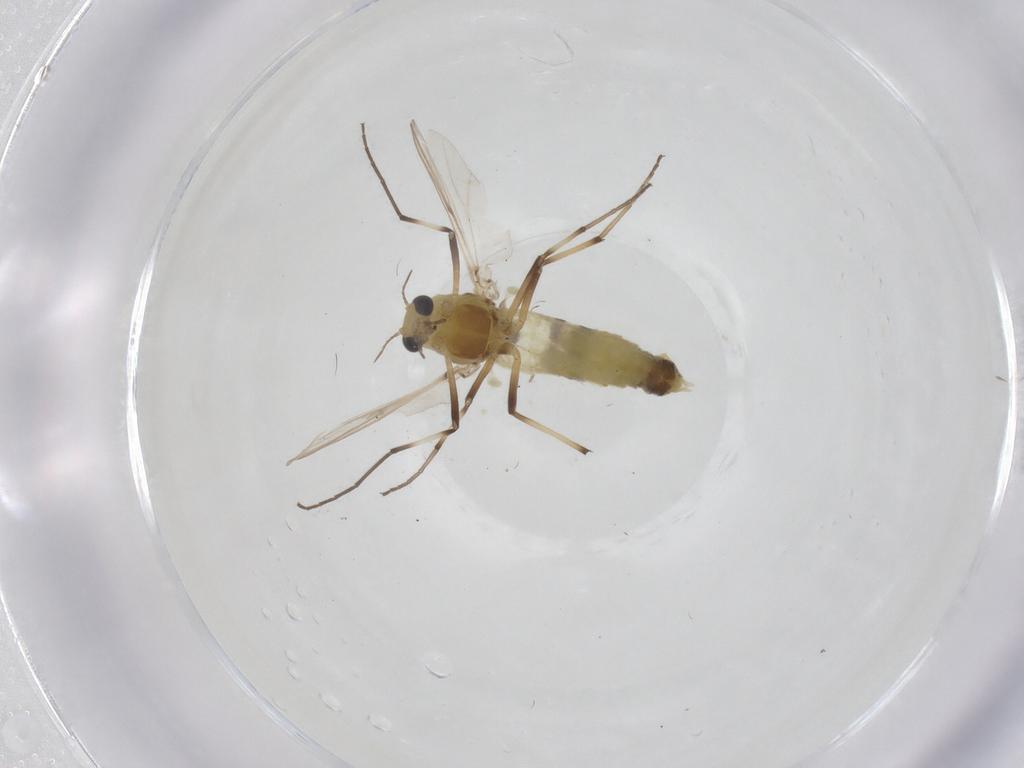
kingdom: Animalia
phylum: Arthropoda
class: Insecta
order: Diptera
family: Chironomidae
